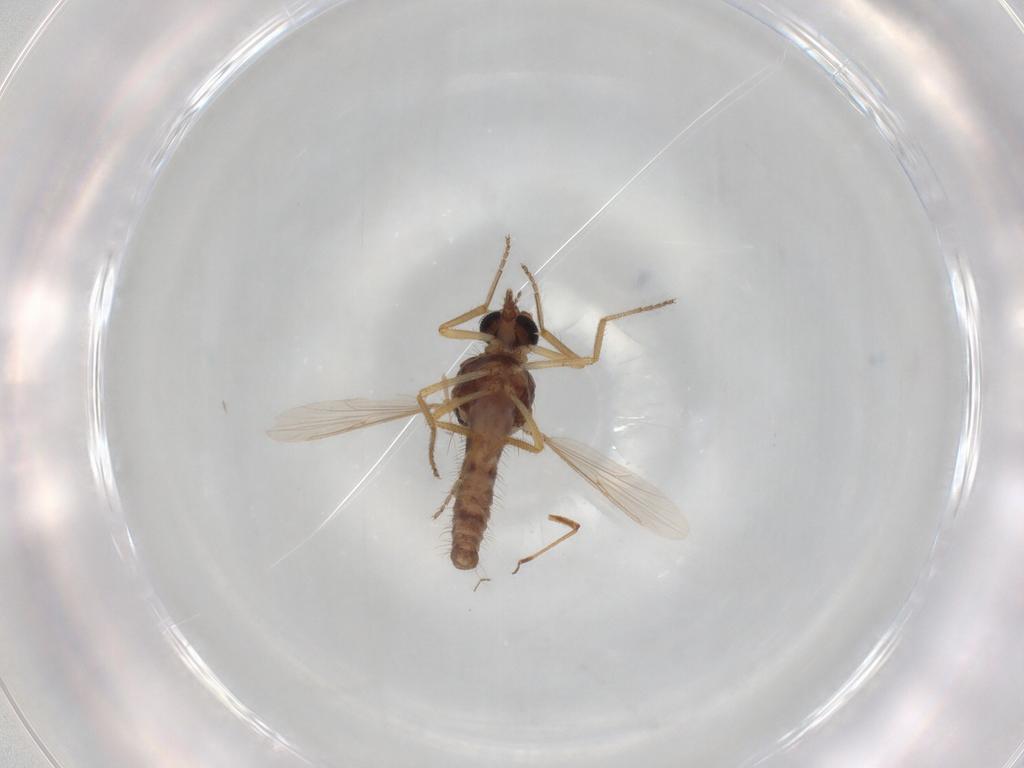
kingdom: Animalia
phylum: Arthropoda
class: Insecta
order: Diptera
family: Ceratopogonidae
